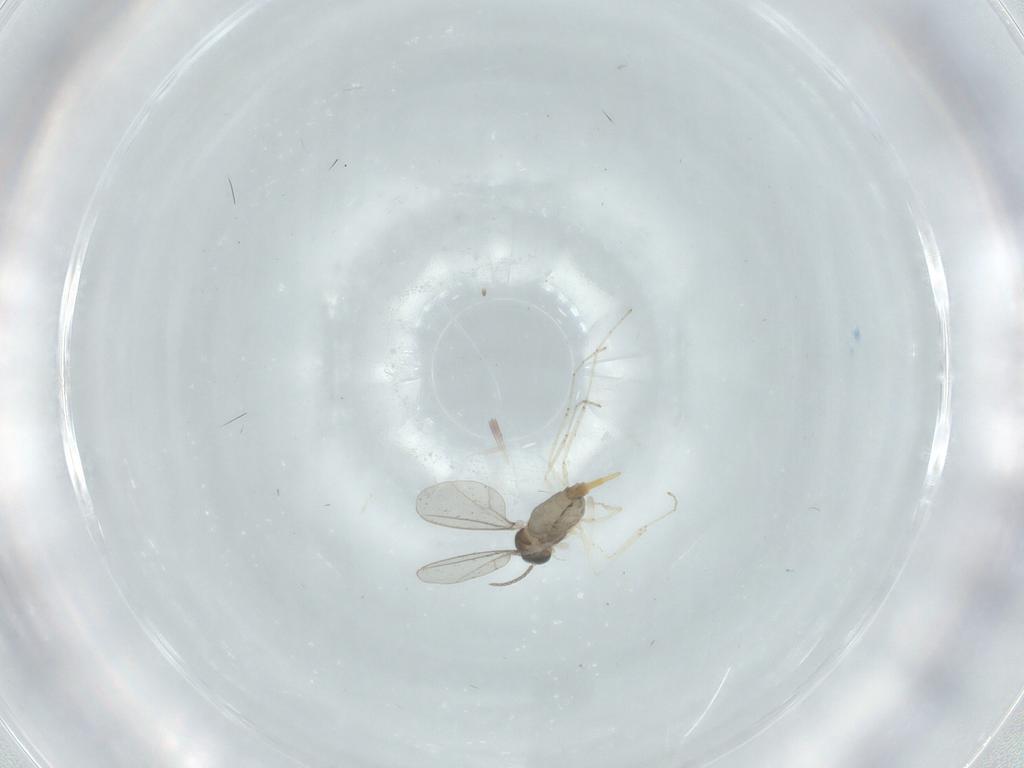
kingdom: Animalia
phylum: Arthropoda
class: Insecta
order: Diptera
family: Cecidomyiidae
